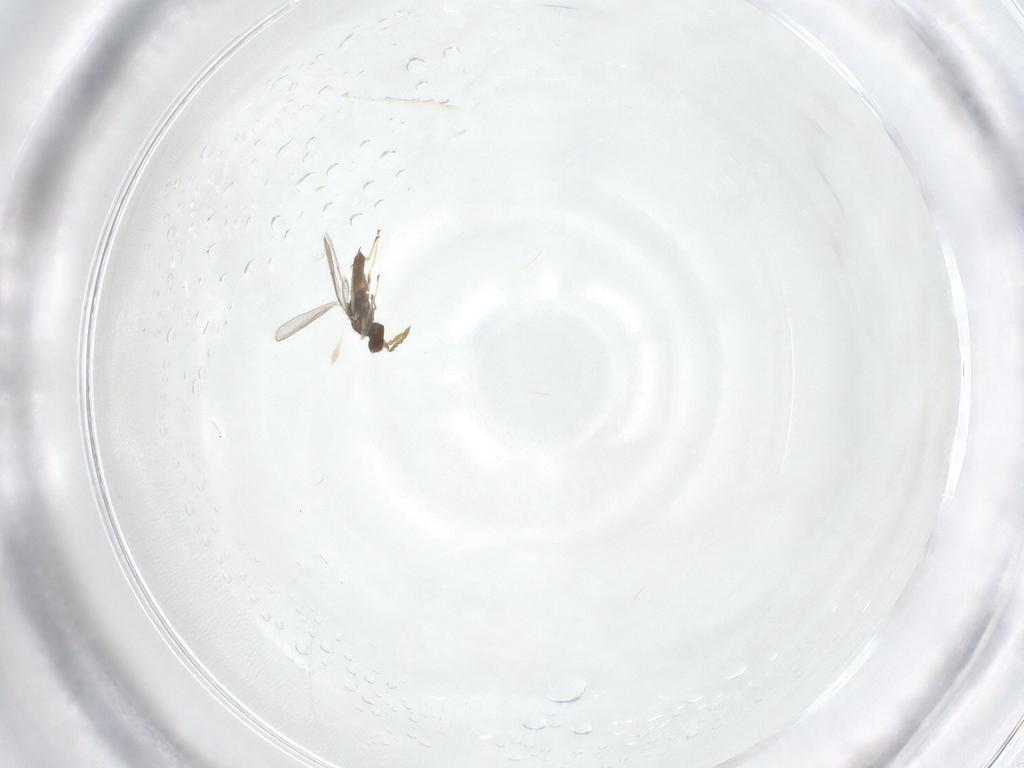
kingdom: Animalia
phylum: Arthropoda
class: Insecta
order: Hymenoptera
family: Eulophidae
